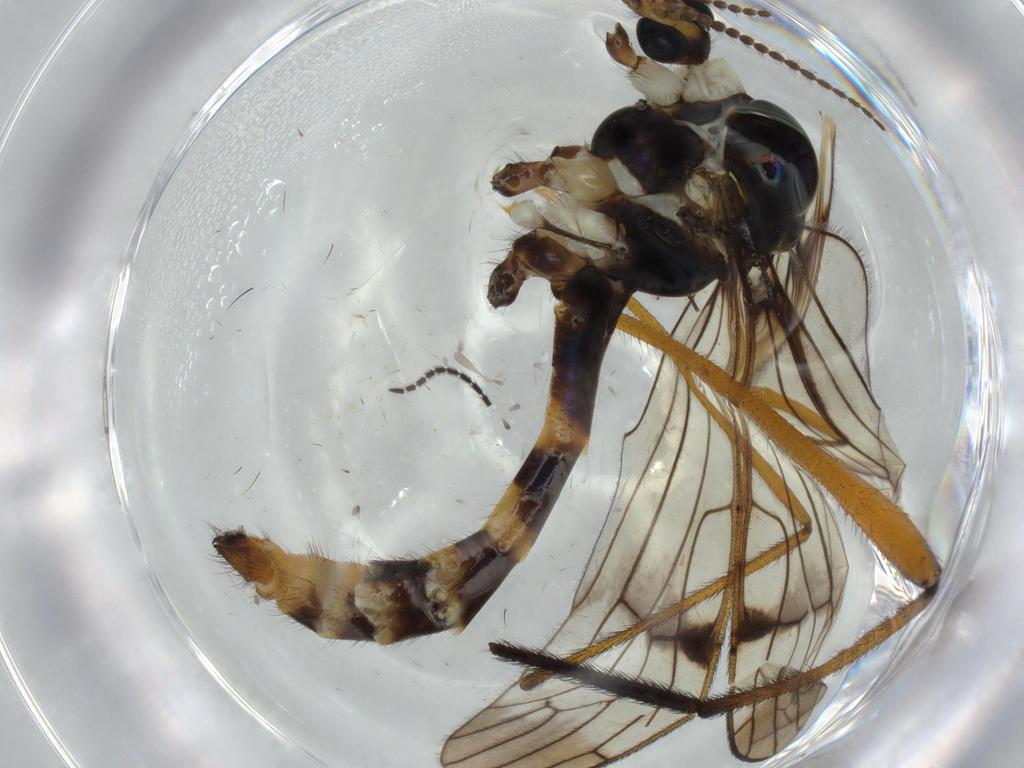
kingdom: Animalia
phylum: Arthropoda
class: Insecta
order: Diptera
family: Limoniidae
